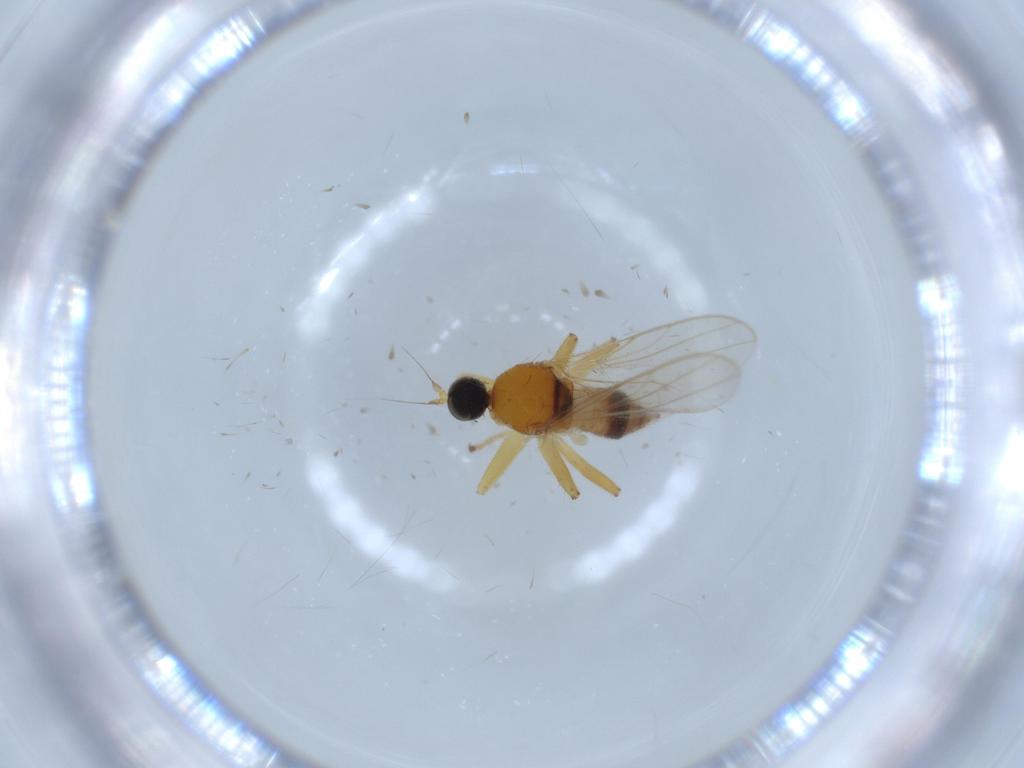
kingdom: Animalia
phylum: Arthropoda
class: Insecta
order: Diptera
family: Hybotidae
